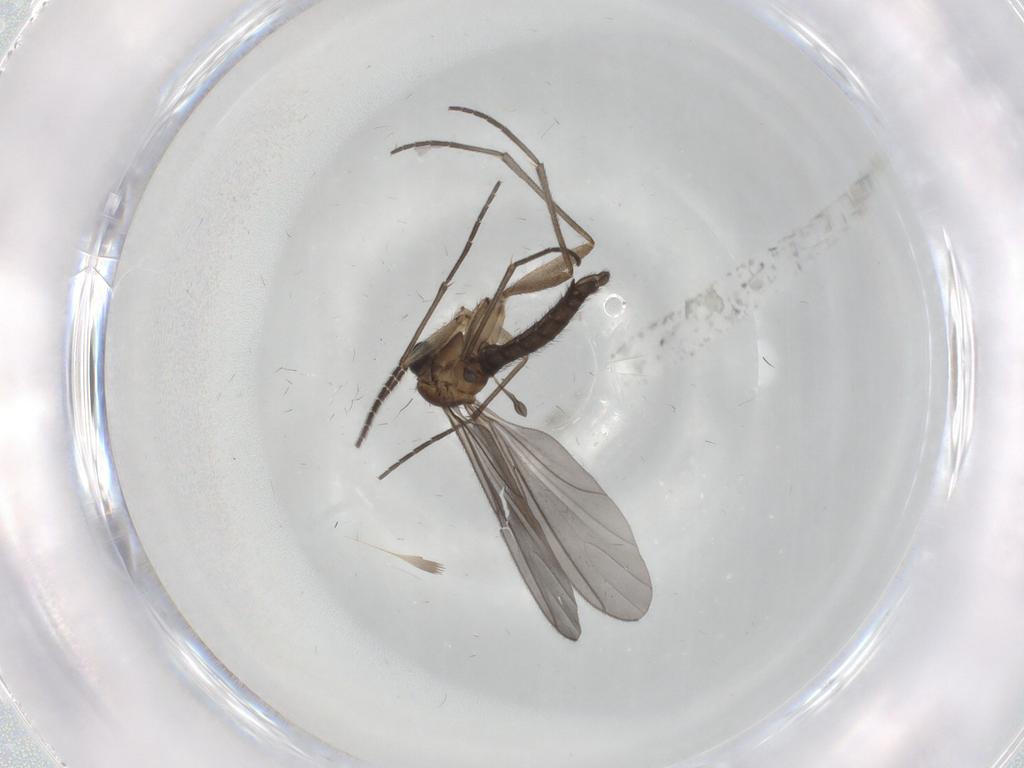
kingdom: Animalia
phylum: Arthropoda
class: Insecta
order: Diptera
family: Sciaridae
